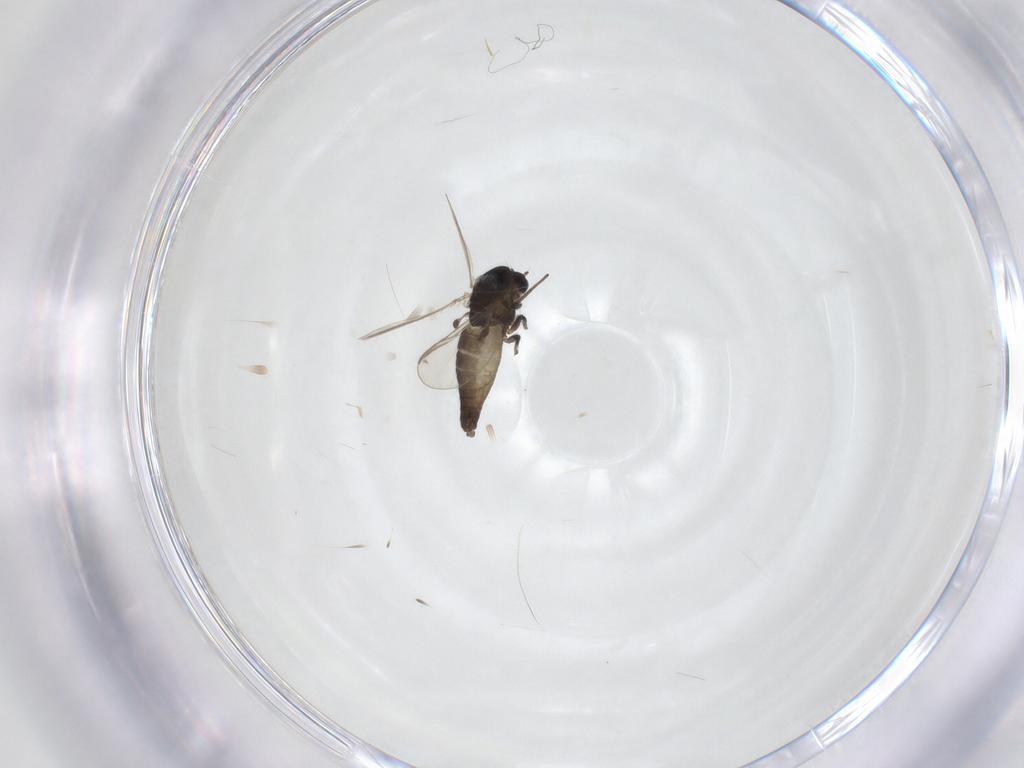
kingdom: Animalia
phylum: Arthropoda
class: Insecta
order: Diptera
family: Chironomidae
